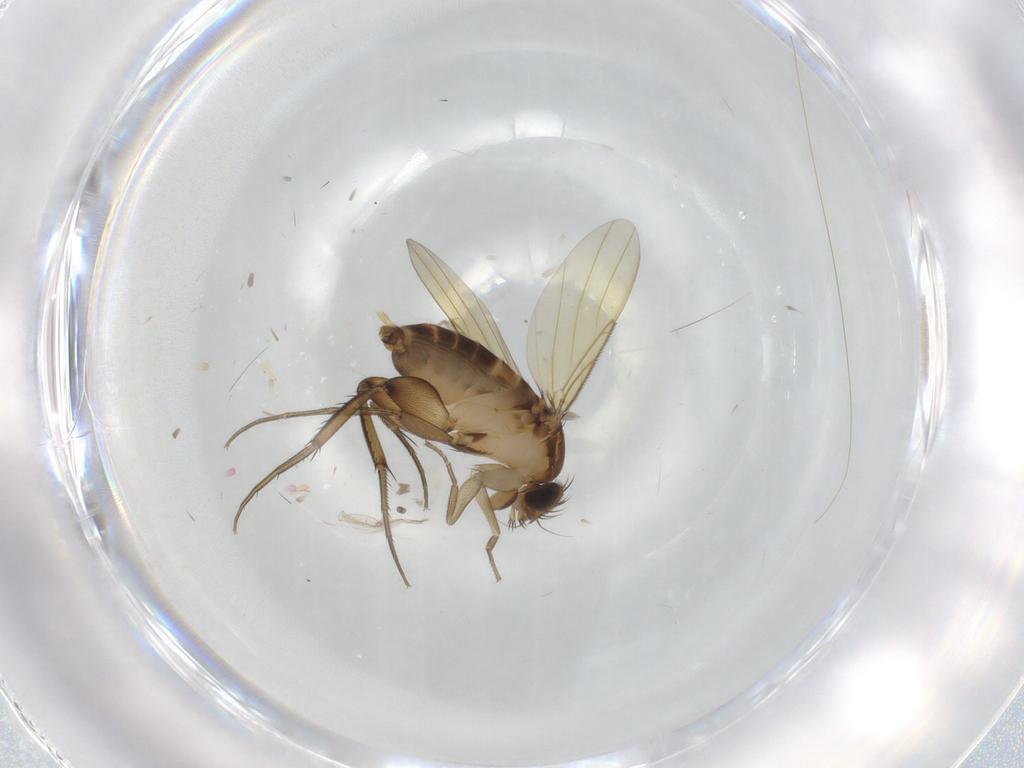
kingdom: Animalia
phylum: Arthropoda
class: Insecta
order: Diptera
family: Phoridae
